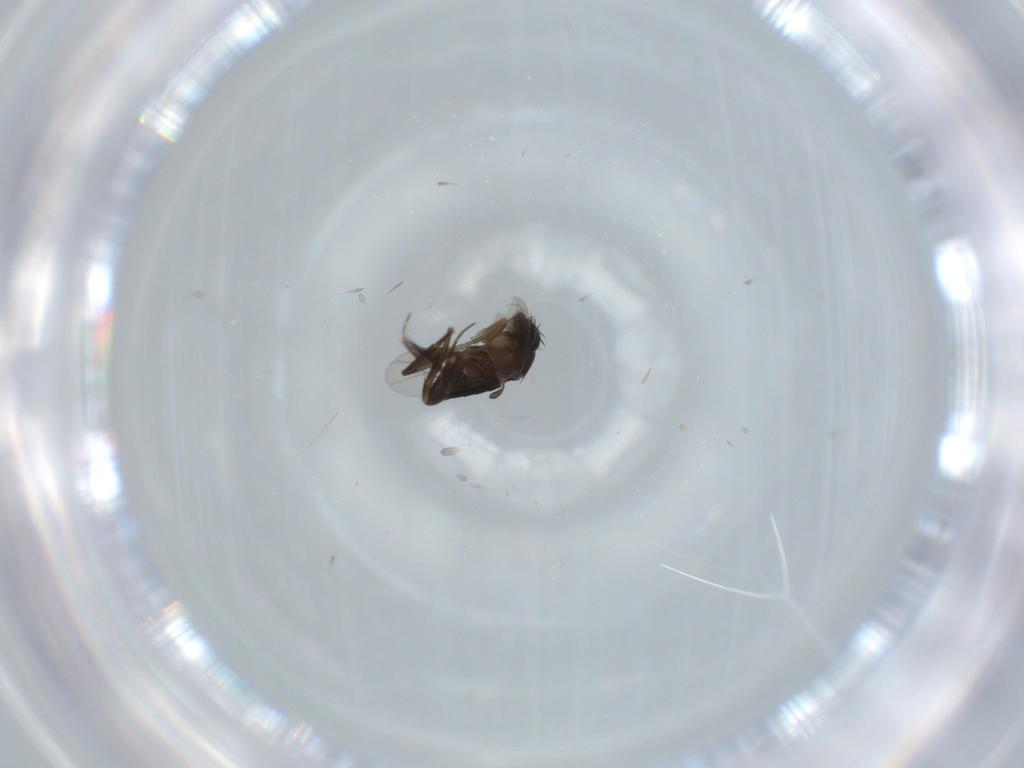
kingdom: Animalia
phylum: Arthropoda
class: Insecta
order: Diptera
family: Phoridae
